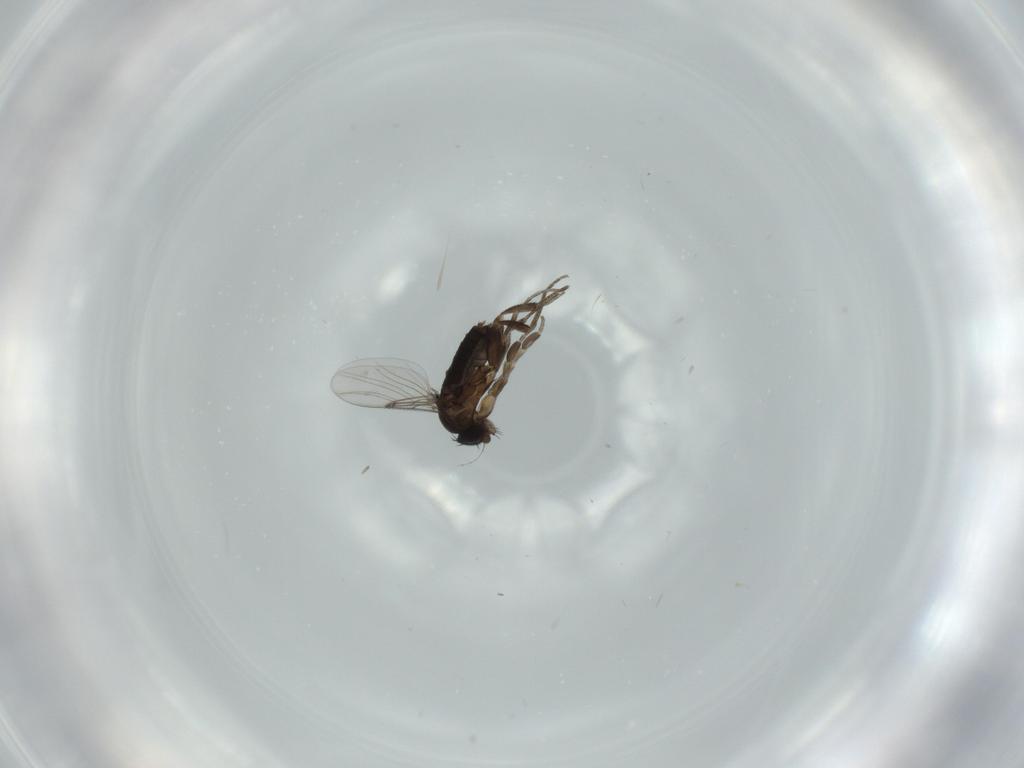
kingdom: Animalia
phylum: Arthropoda
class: Insecta
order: Diptera
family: Phoridae
